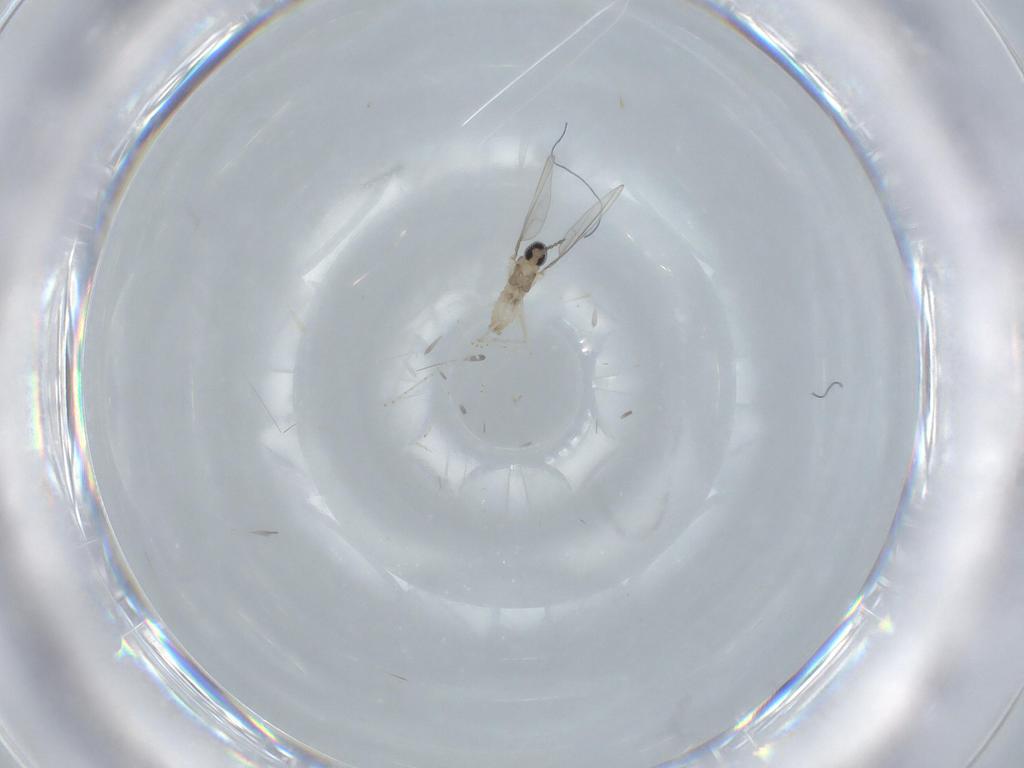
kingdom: Animalia
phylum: Arthropoda
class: Insecta
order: Diptera
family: Cecidomyiidae
